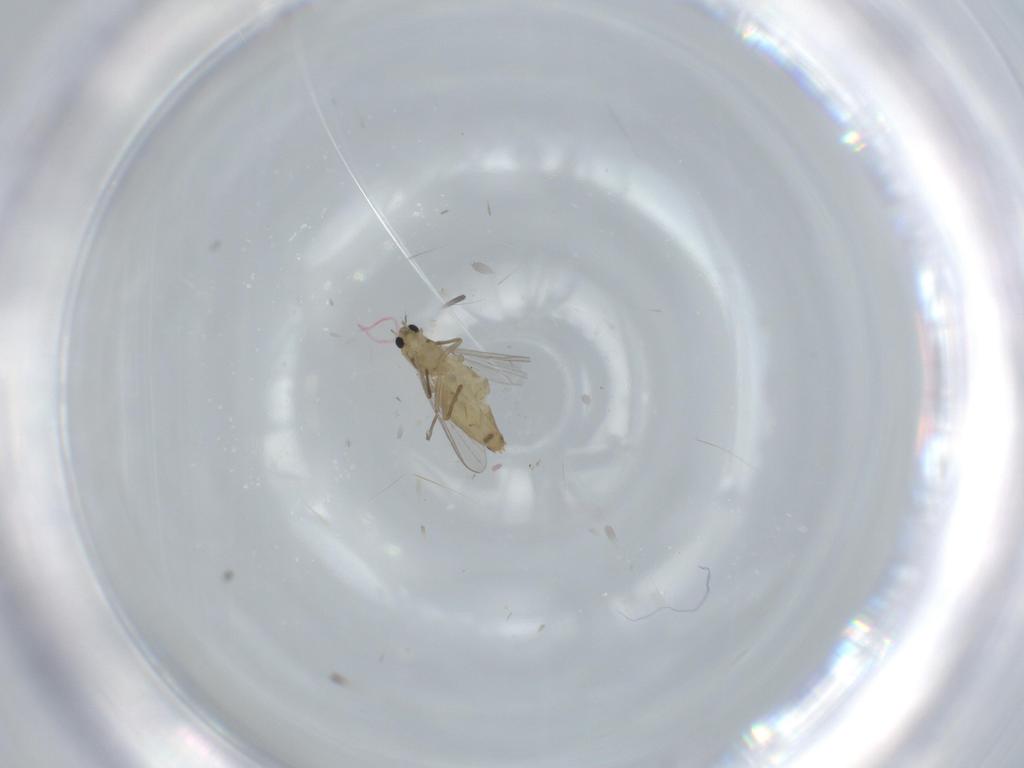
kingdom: Animalia
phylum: Arthropoda
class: Insecta
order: Diptera
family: Chironomidae
